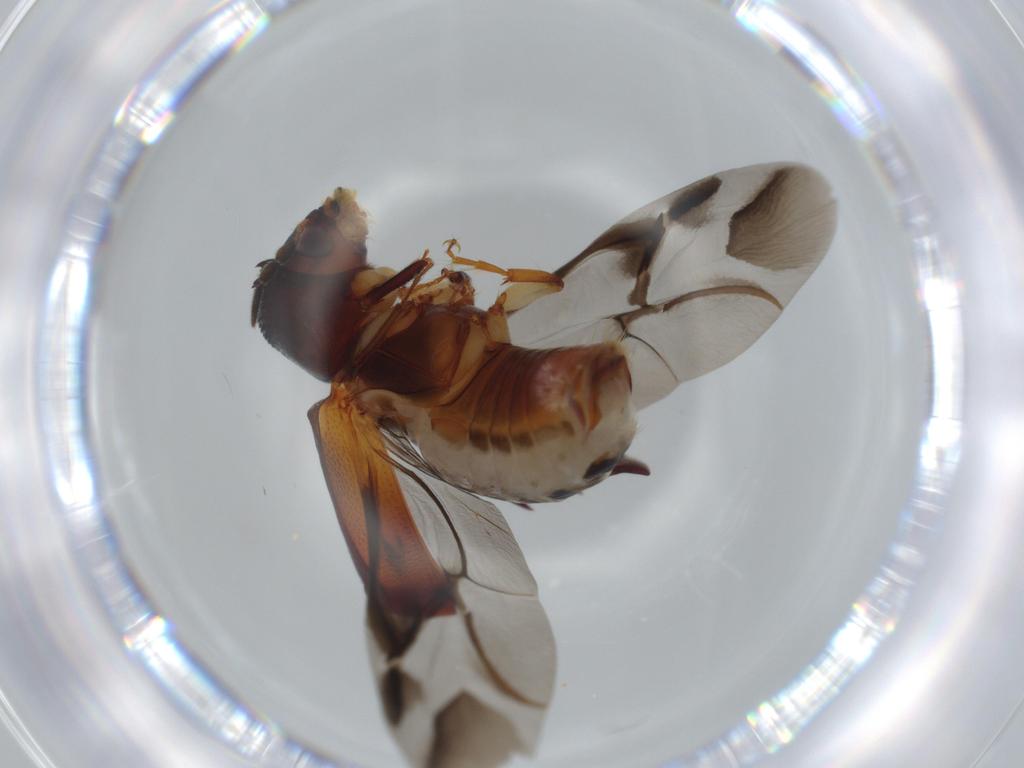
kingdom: Animalia
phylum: Arthropoda
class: Insecta
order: Coleoptera
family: Bostrichidae
